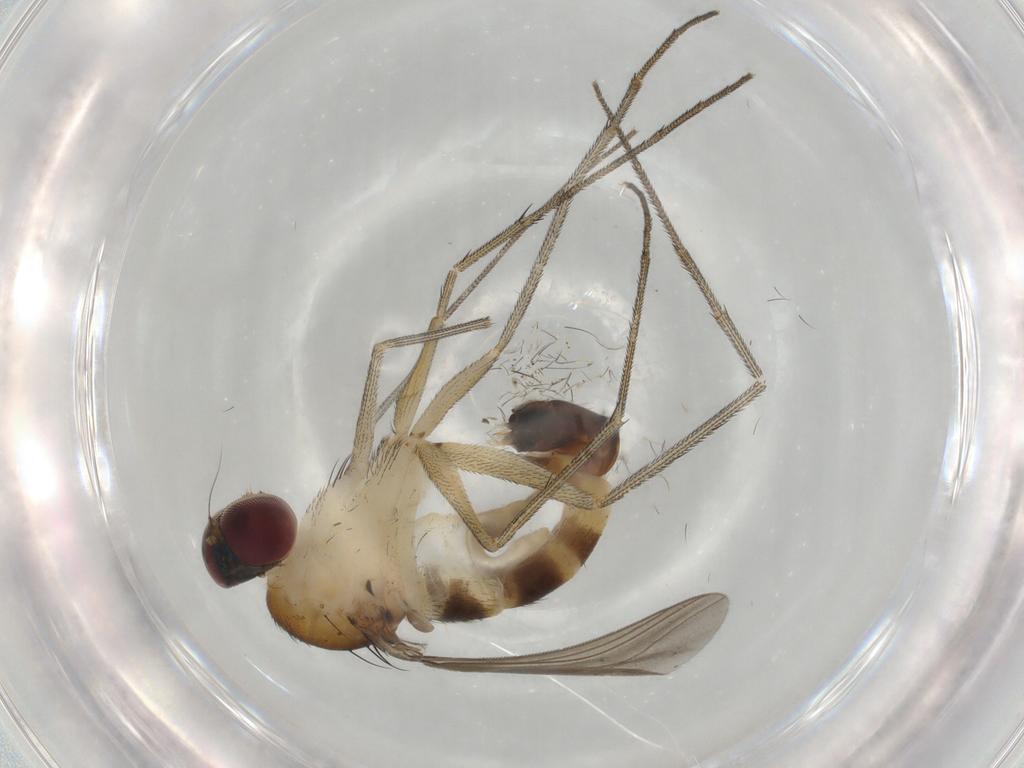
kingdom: Animalia
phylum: Arthropoda
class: Insecta
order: Diptera
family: Dolichopodidae
